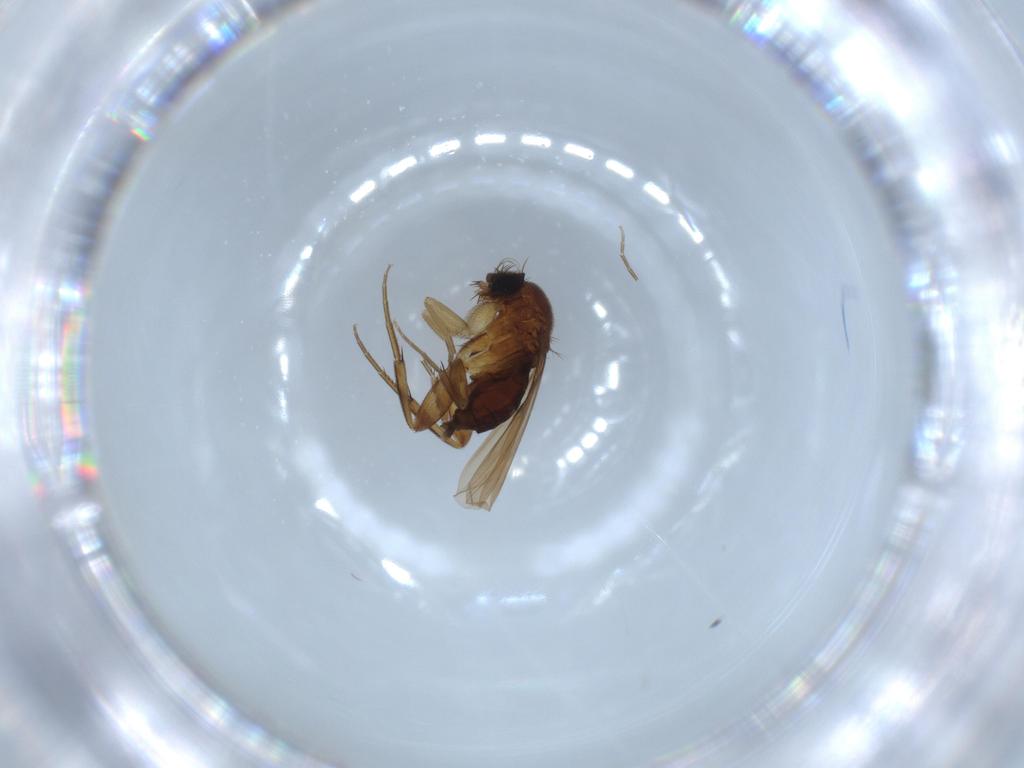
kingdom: Animalia
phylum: Arthropoda
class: Insecta
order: Diptera
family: Phoridae
